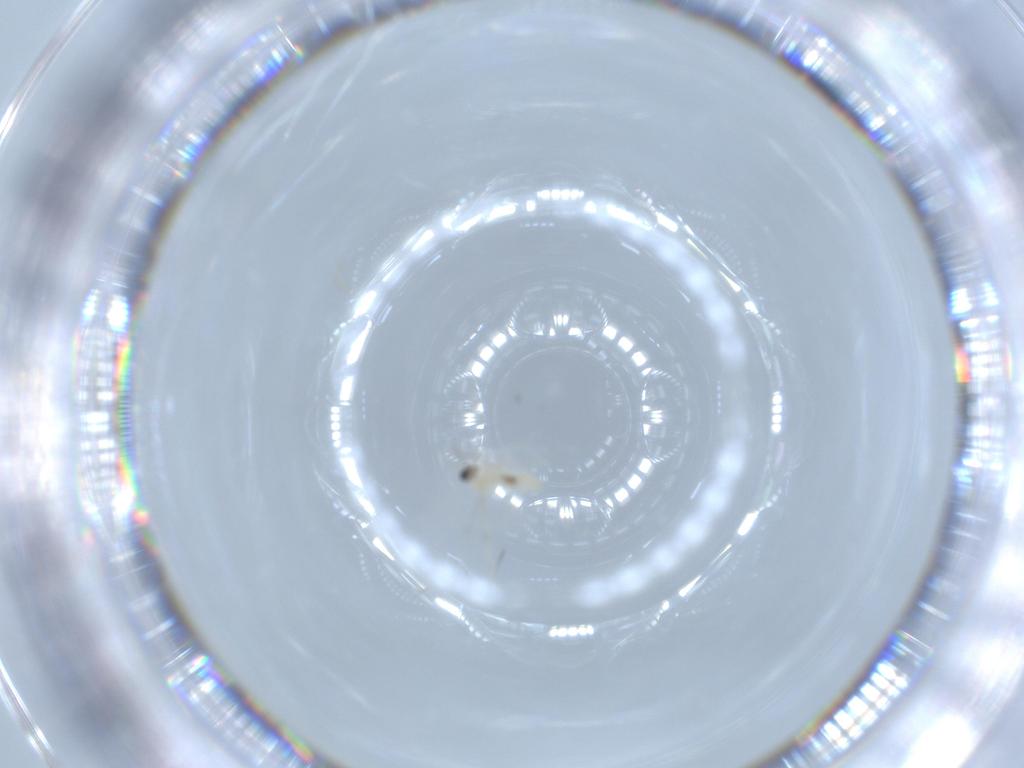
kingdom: Animalia
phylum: Arthropoda
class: Insecta
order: Diptera
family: Cecidomyiidae
